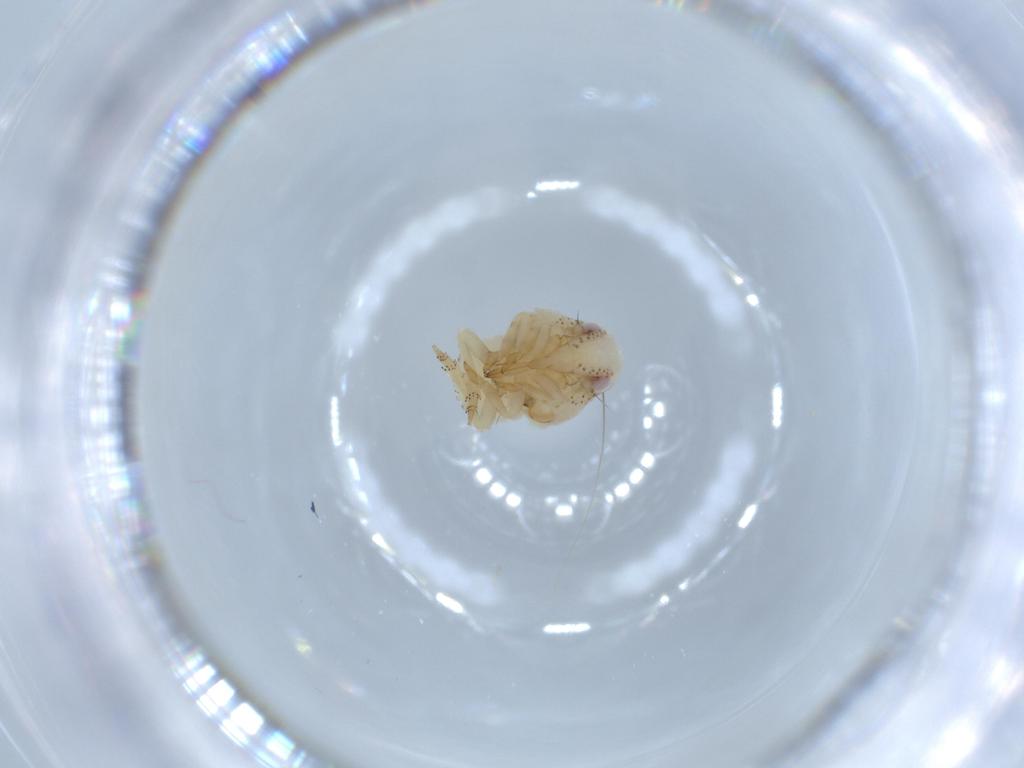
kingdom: Animalia
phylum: Arthropoda
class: Insecta
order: Hemiptera
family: Acanaloniidae
